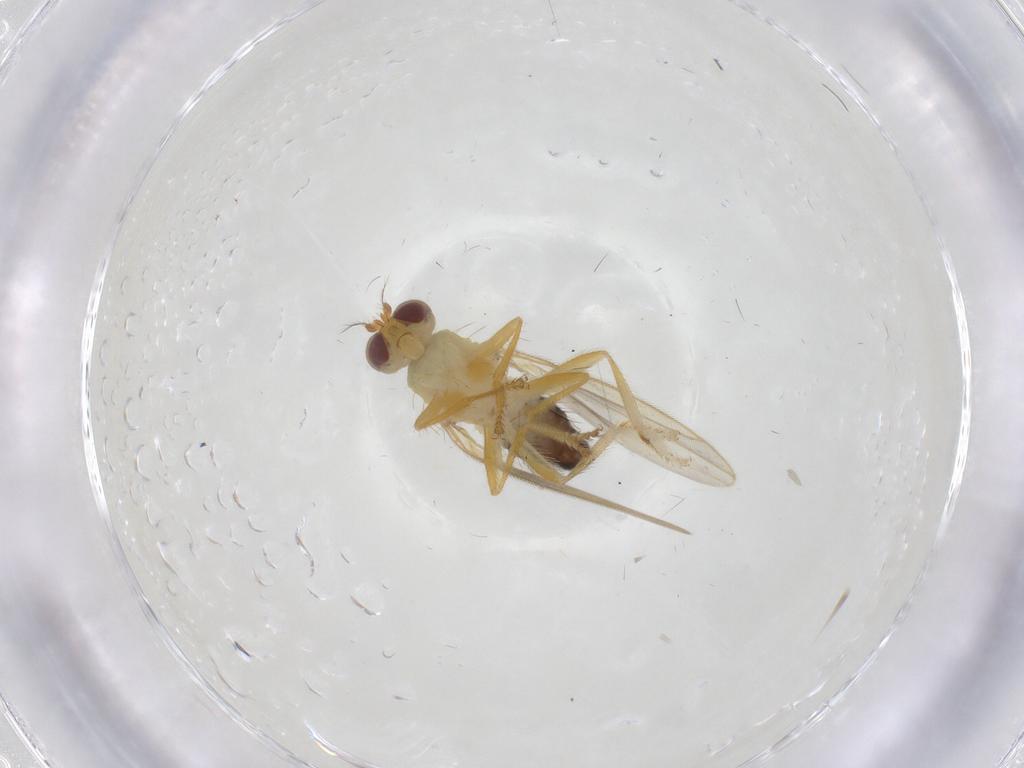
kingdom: Animalia
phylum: Arthropoda
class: Insecta
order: Diptera
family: Periscelididae
